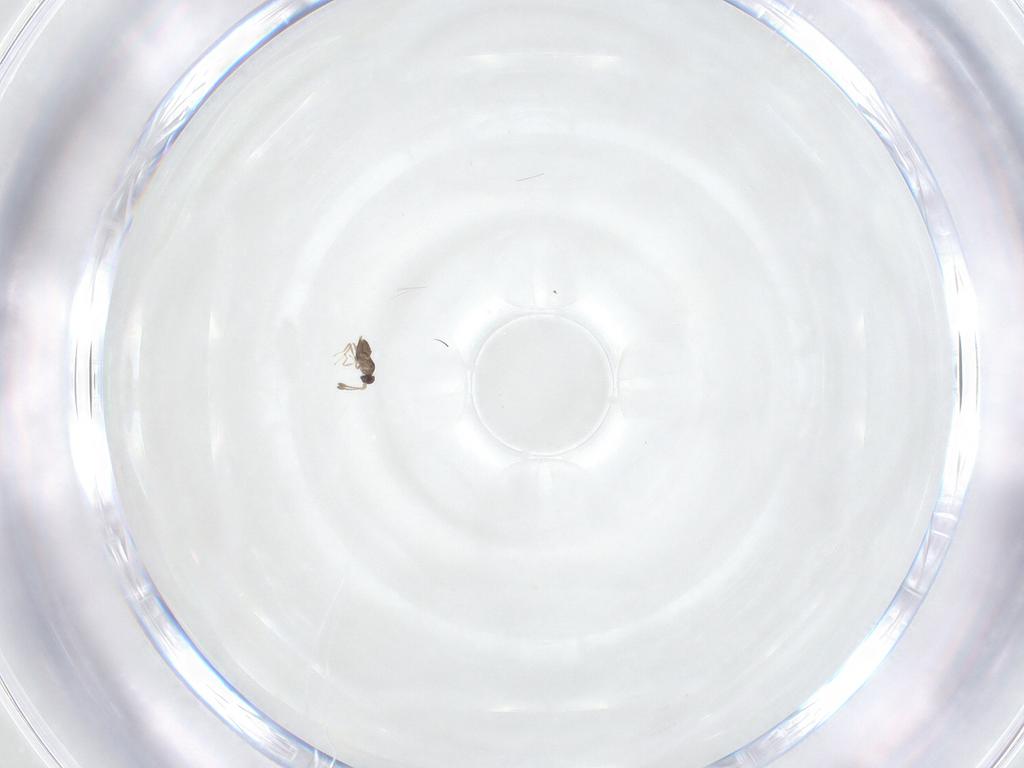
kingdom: Animalia
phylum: Arthropoda
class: Insecta
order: Hymenoptera
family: Mymaridae
